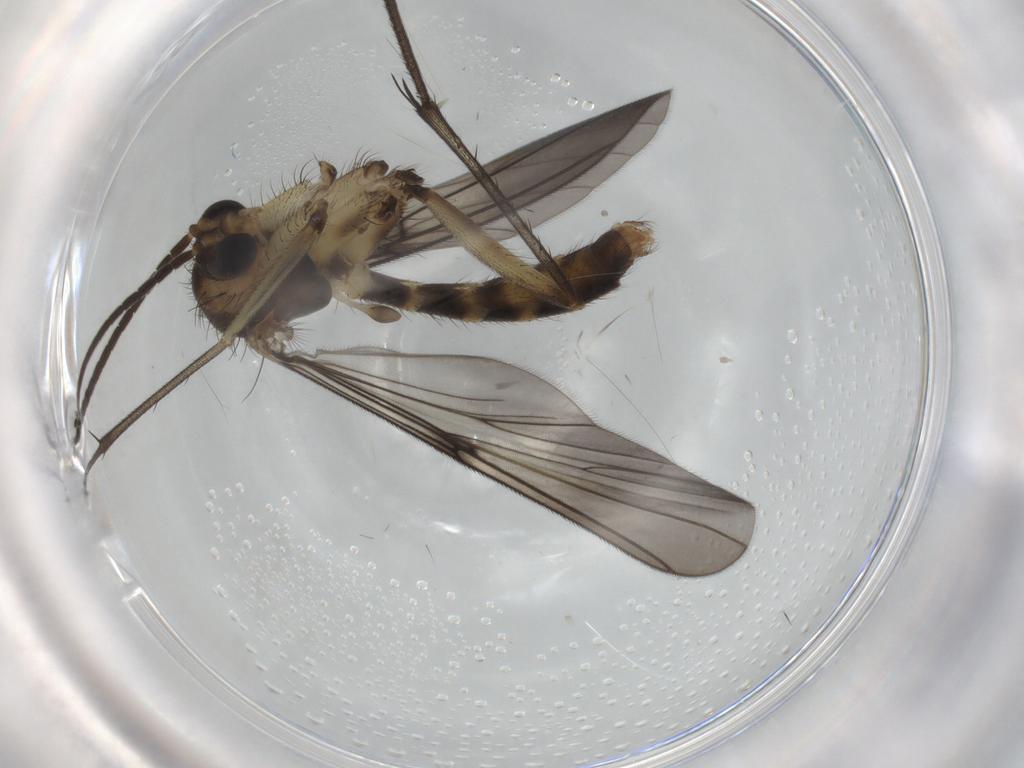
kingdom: Animalia
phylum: Arthropoda
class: Insecta
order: Diptera
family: Mycetophilidae
